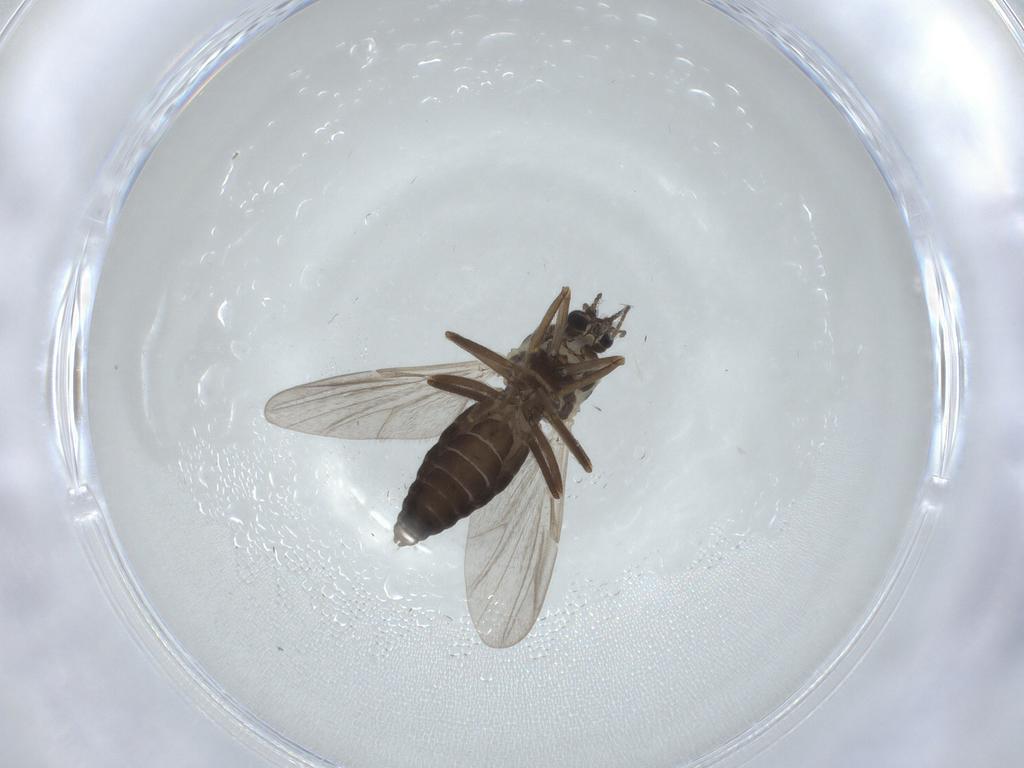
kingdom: Animalia
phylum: Arthropoda
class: Insecta
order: Diptera
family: Ceratopogonidae
